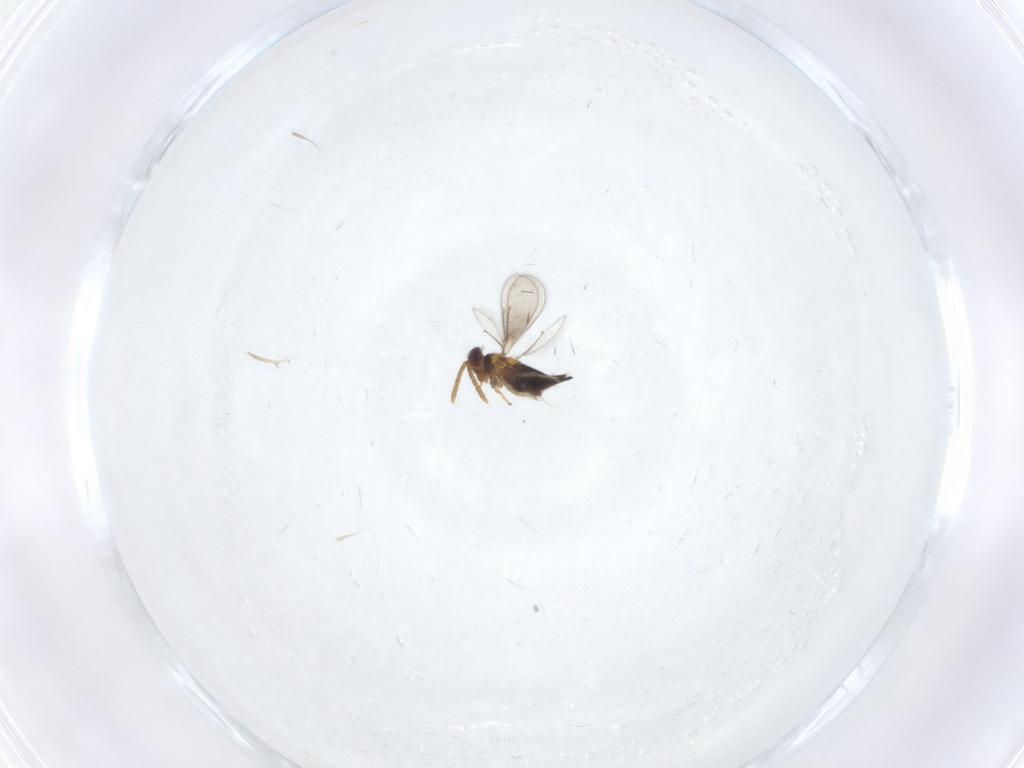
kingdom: Animalia
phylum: Arthropoda
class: Insecta
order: Hymenoptera
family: Aphelinidae
